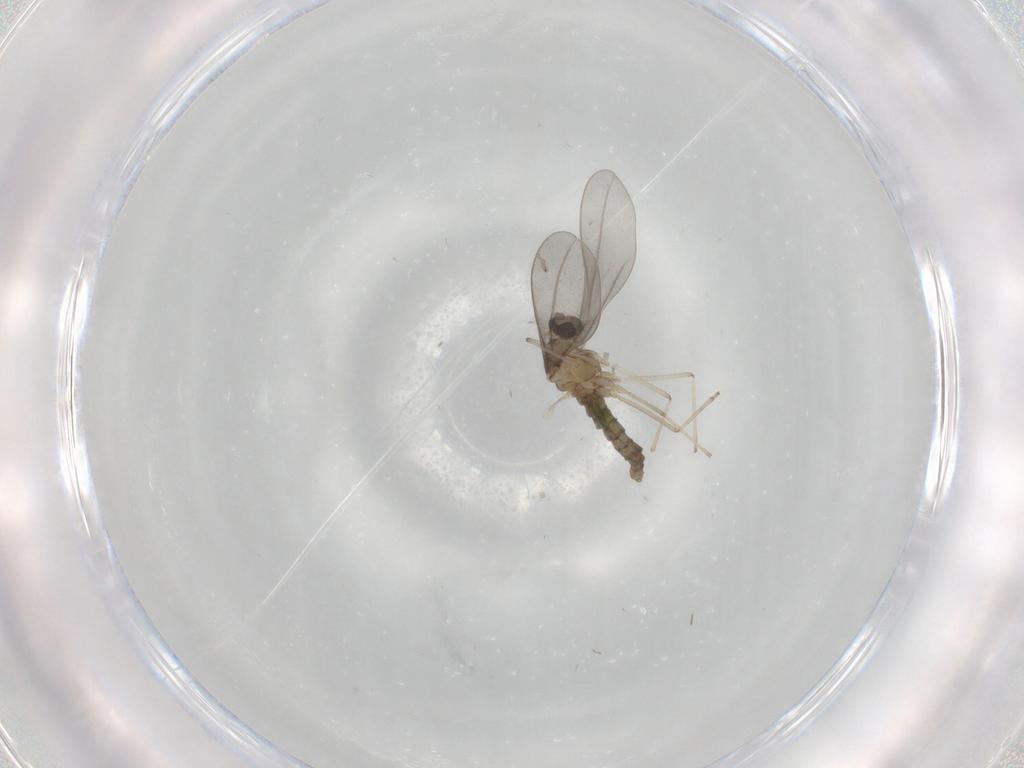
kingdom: Animalia
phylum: Arthropoda
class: Insecta
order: Diptera
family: Cecidomyiidae
